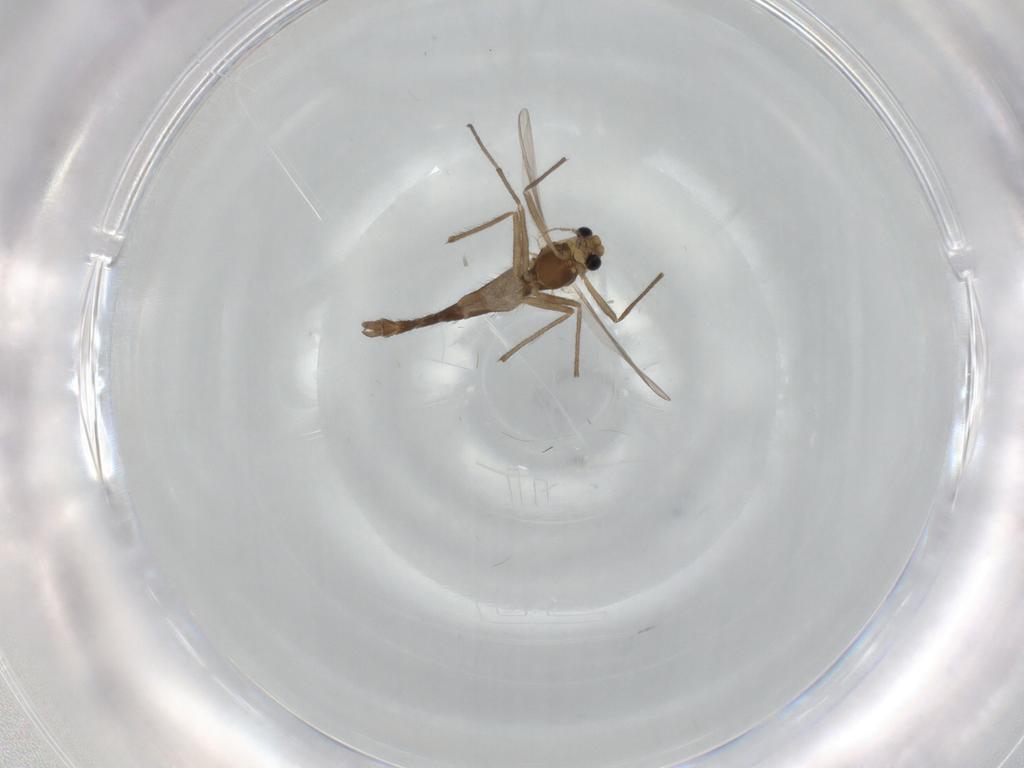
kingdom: Animalia
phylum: Arthropoda
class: Insecta
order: Diptera
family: Chironomidae
